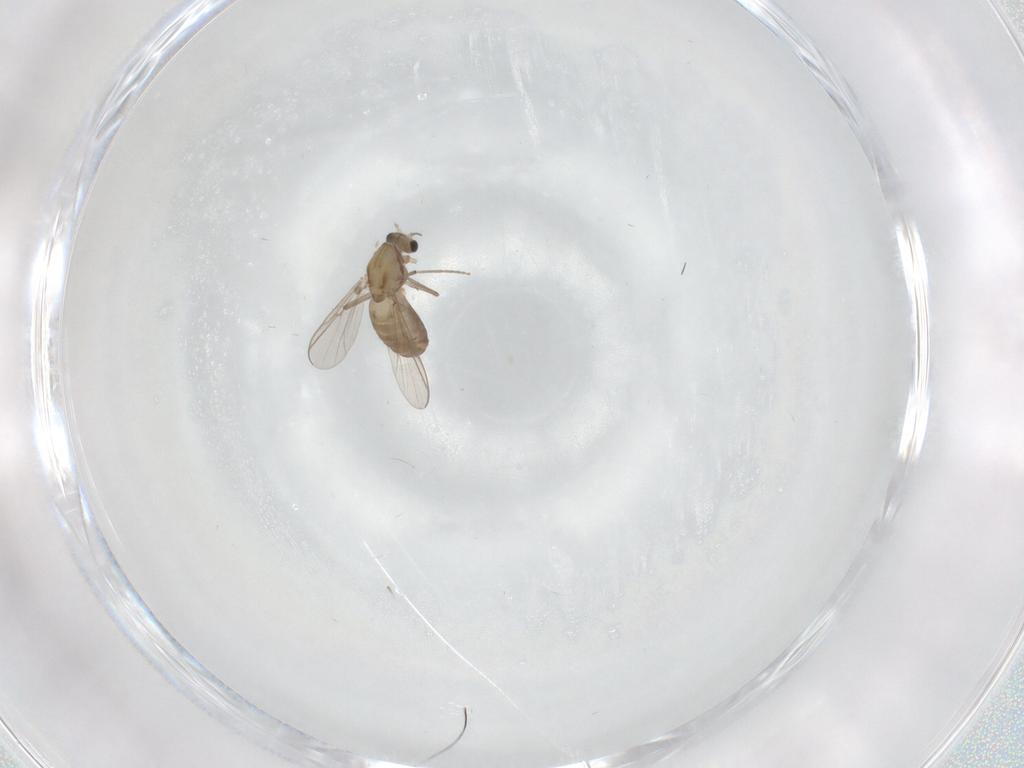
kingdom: Animalia
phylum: Arthropoda
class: Insecta
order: Diptera
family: Chironomidae
